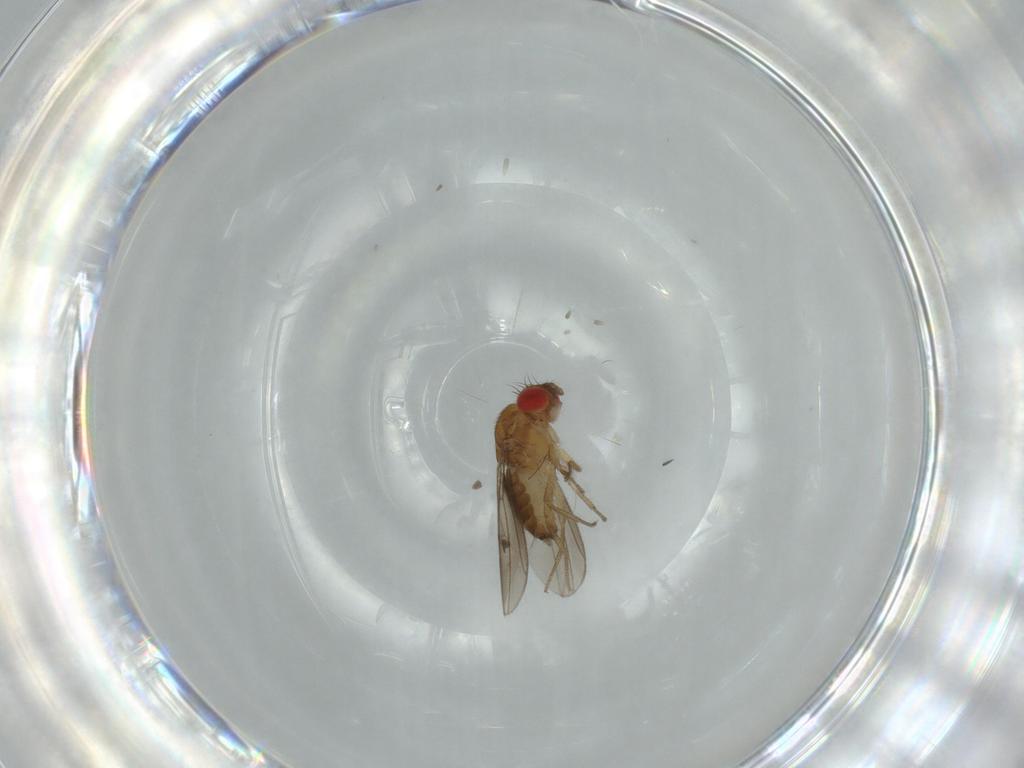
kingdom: Animalia
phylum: Arthropoda
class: Insecta
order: Diptera
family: Drosophilidae
